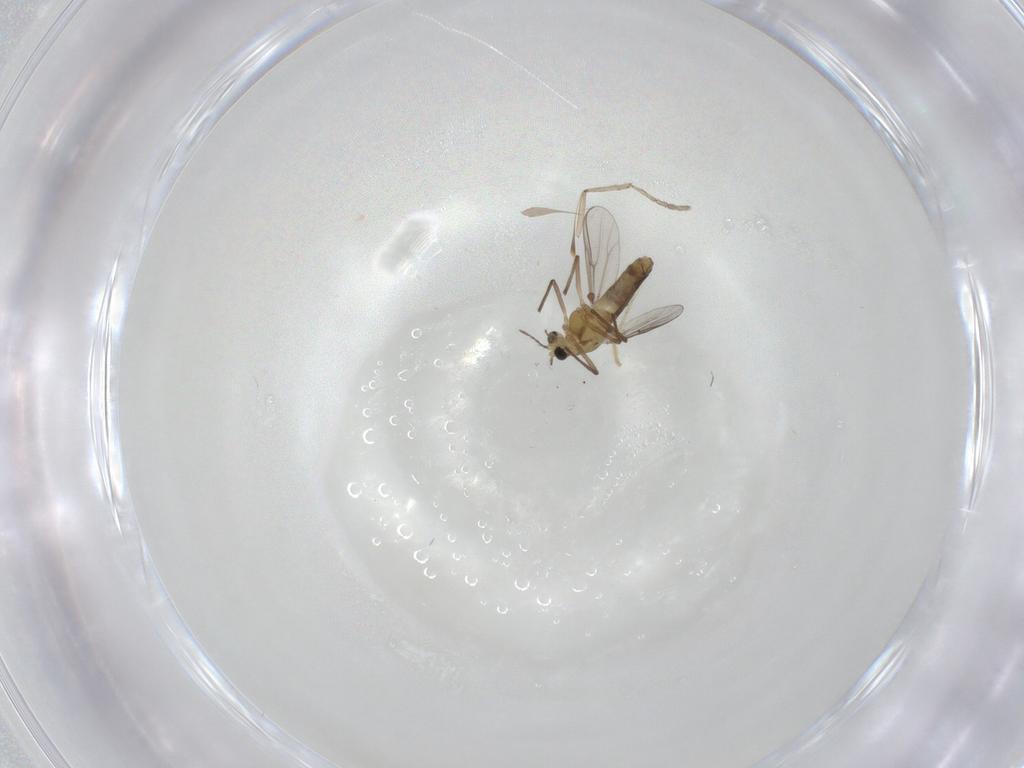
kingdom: Animalia
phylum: Arthropoda
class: Insecta
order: Diptera
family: Chironomidae
